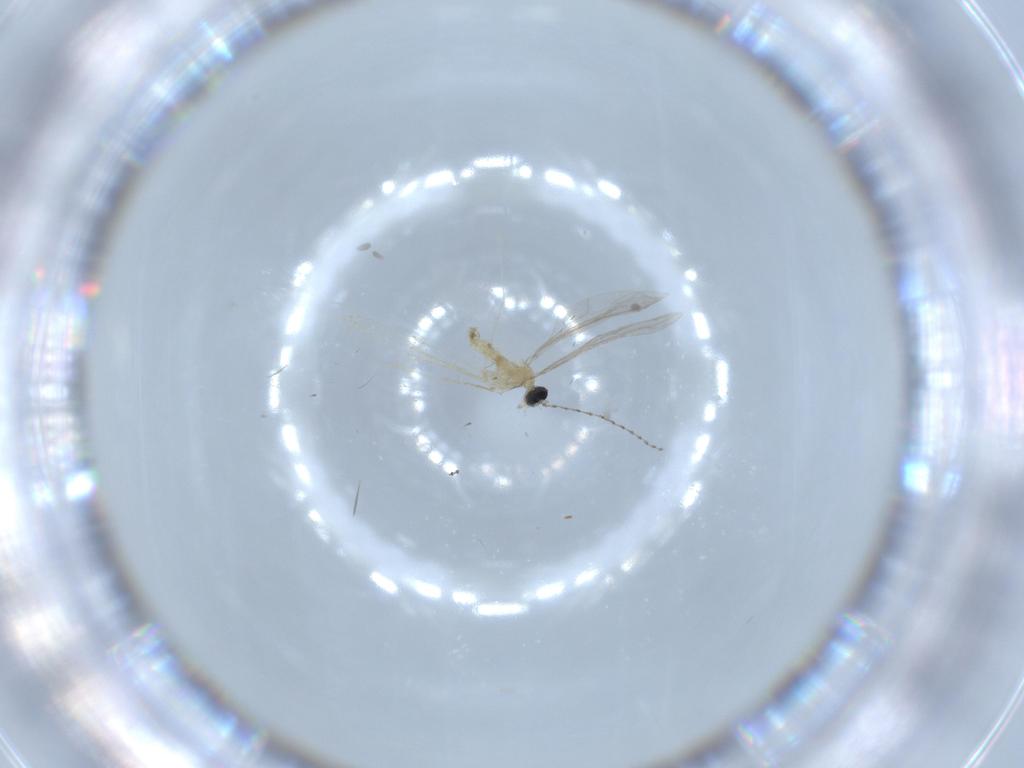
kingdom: Animalia
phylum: Arthropoda
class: Insecta
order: Diptera
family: Cecidomyiidae
